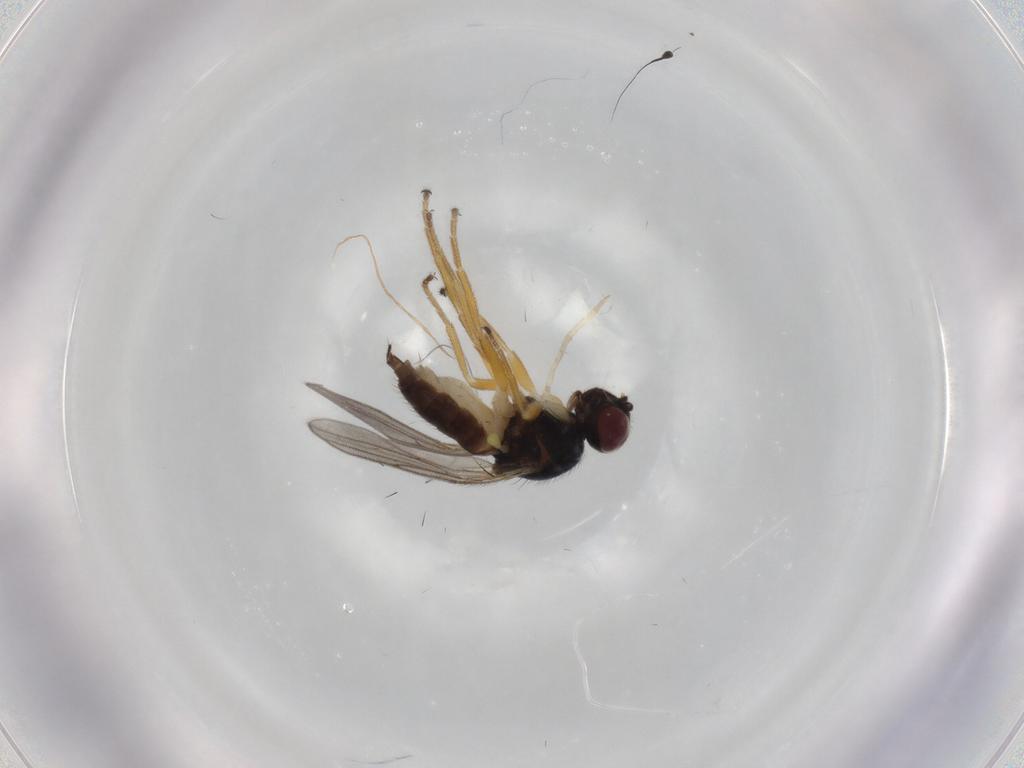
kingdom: Animalia
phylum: Arthropoda
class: Insecta
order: Diptera
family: Chloropidae
